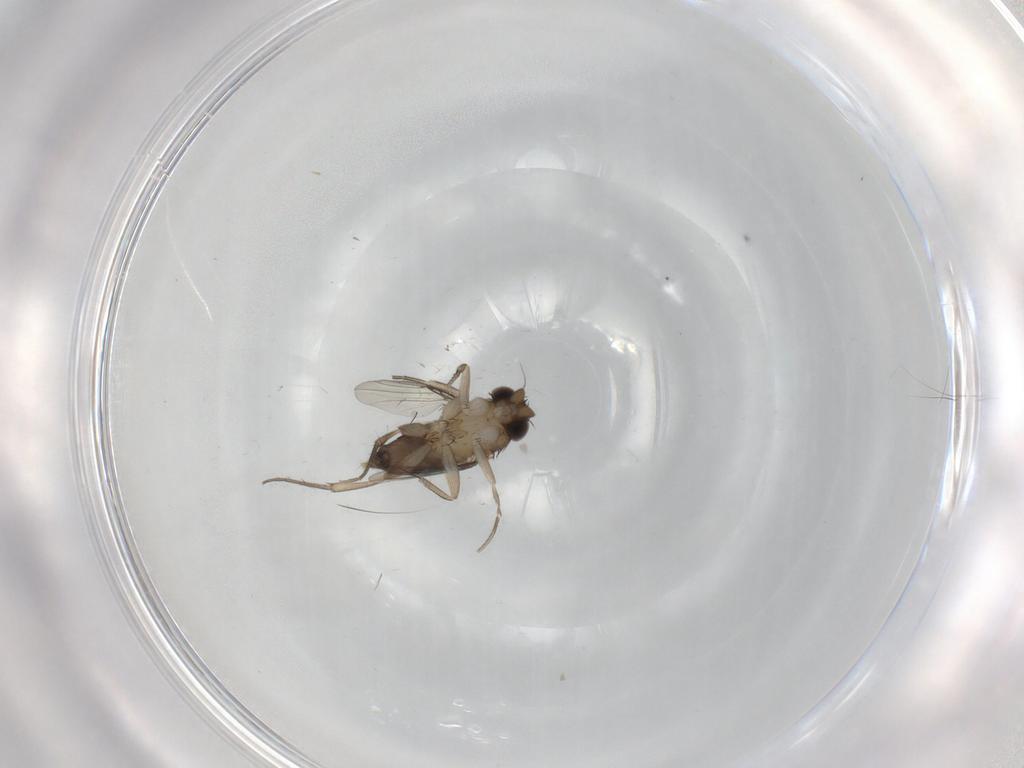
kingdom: Animalia
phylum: Arthropoda
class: Insecta
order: Diptera
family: Phoridae
